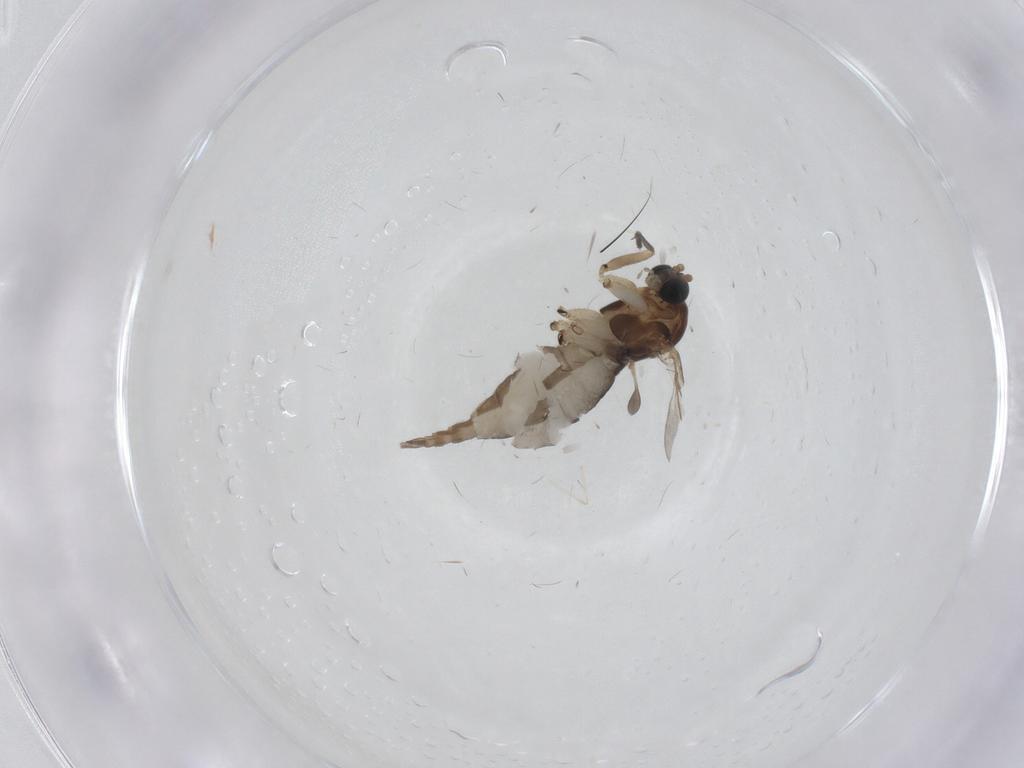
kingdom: Animalia
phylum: Arthropoda
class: Insecta
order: Diptera
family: Sciaridae
